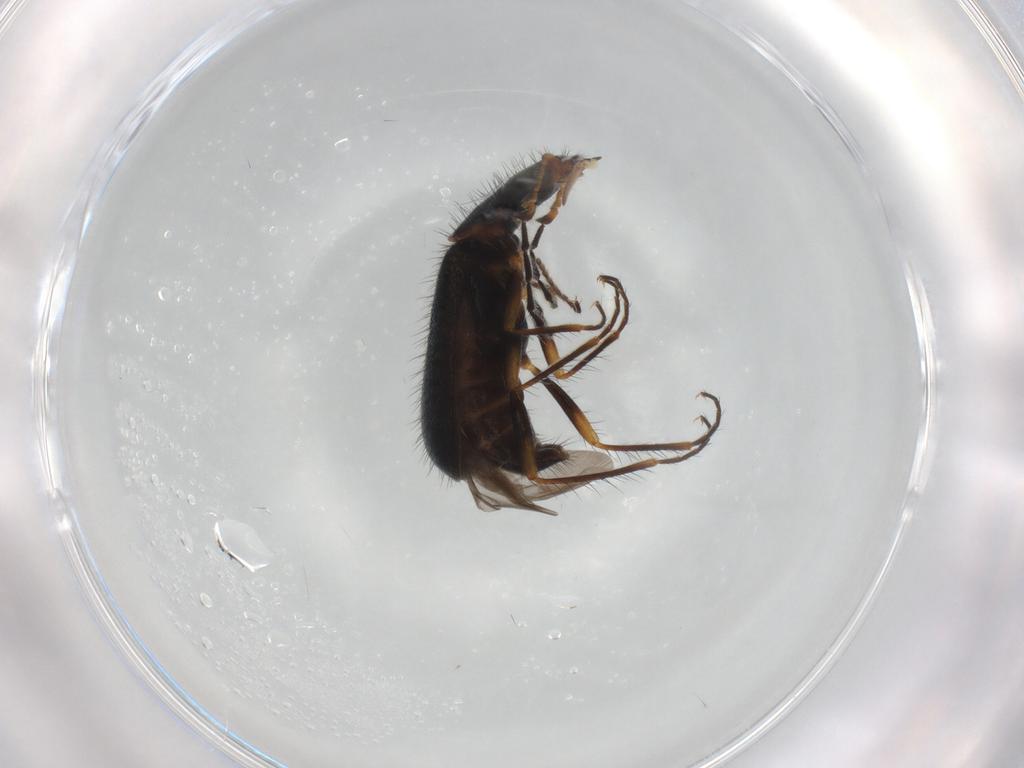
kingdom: Animalia
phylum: Arthropoda
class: Insecta
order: Coleoptera
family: Melyridae
